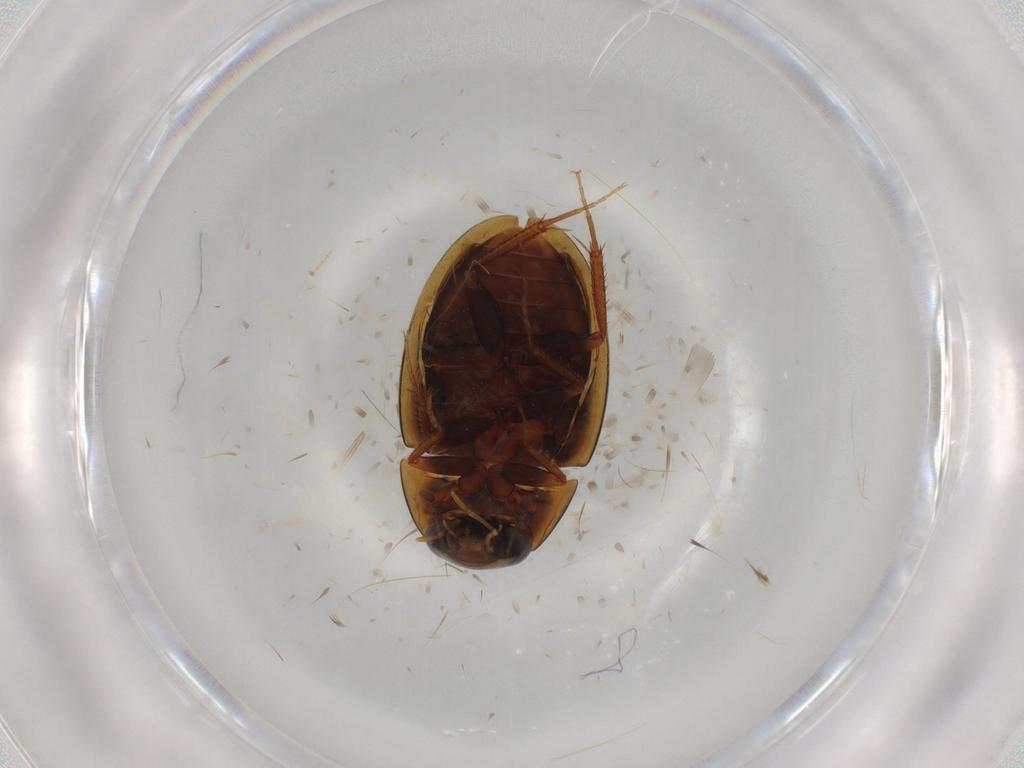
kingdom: Animalia
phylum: Arthropoda
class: Insecta
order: Coleoptera
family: Hydrophilidae
